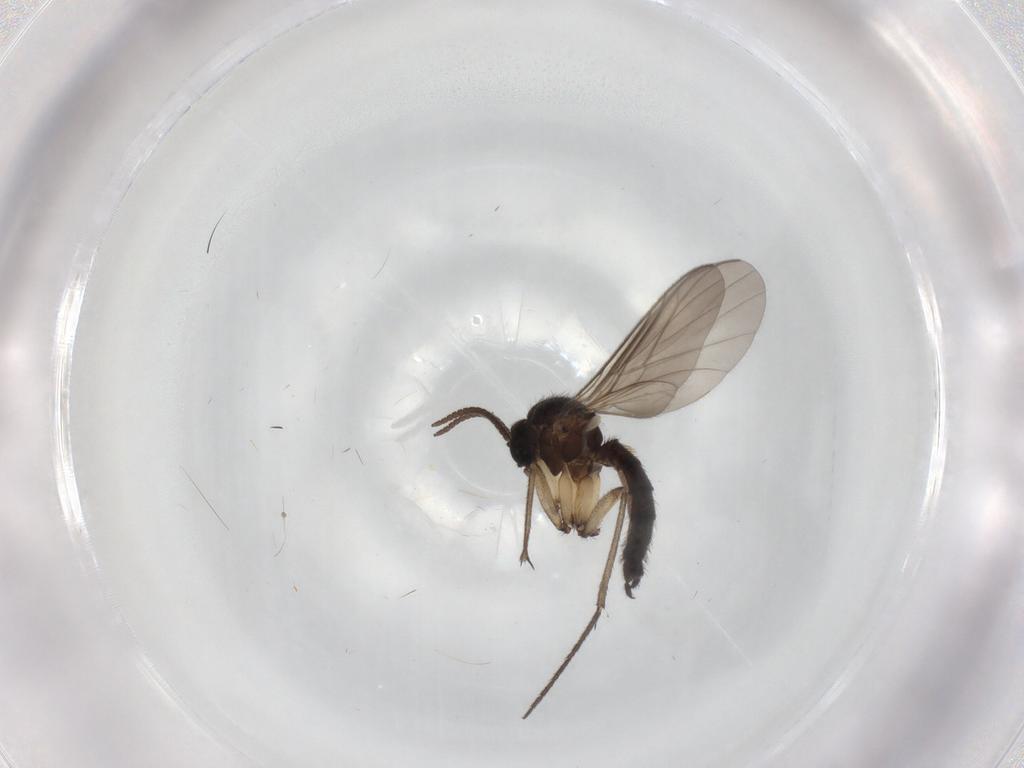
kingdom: Animalia
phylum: Arthropoda
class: Insecta
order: Diptera
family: Keroplatidae
